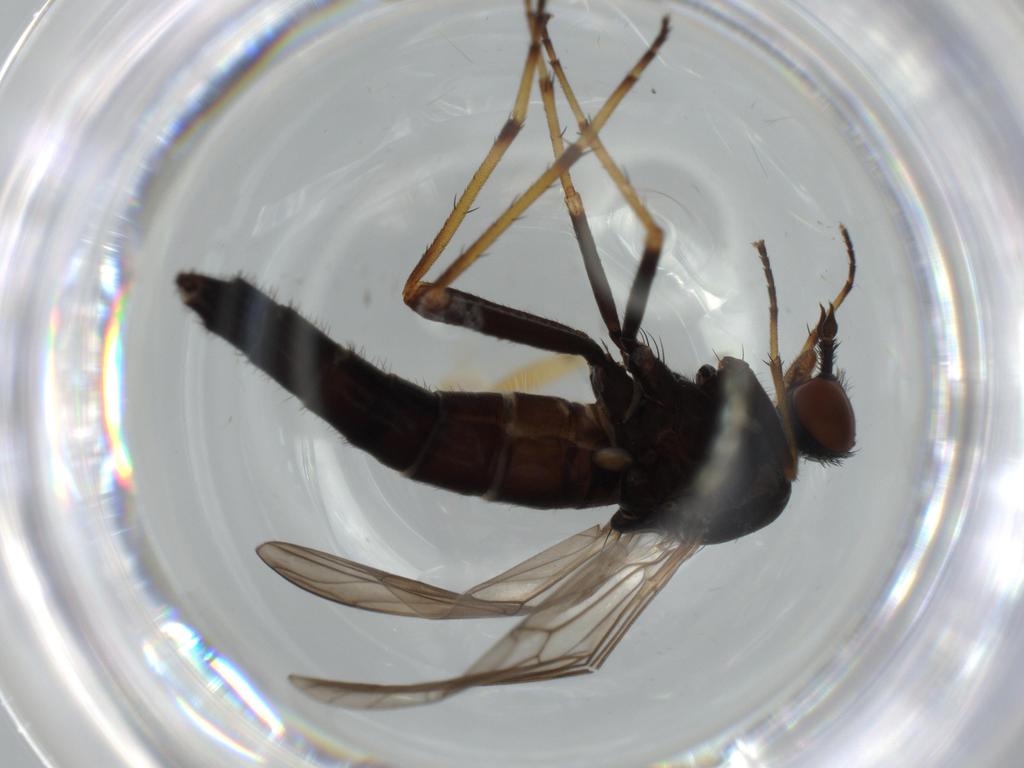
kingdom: Animalia
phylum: Arthropoda
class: Insecta
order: Diptera
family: Phoridae
